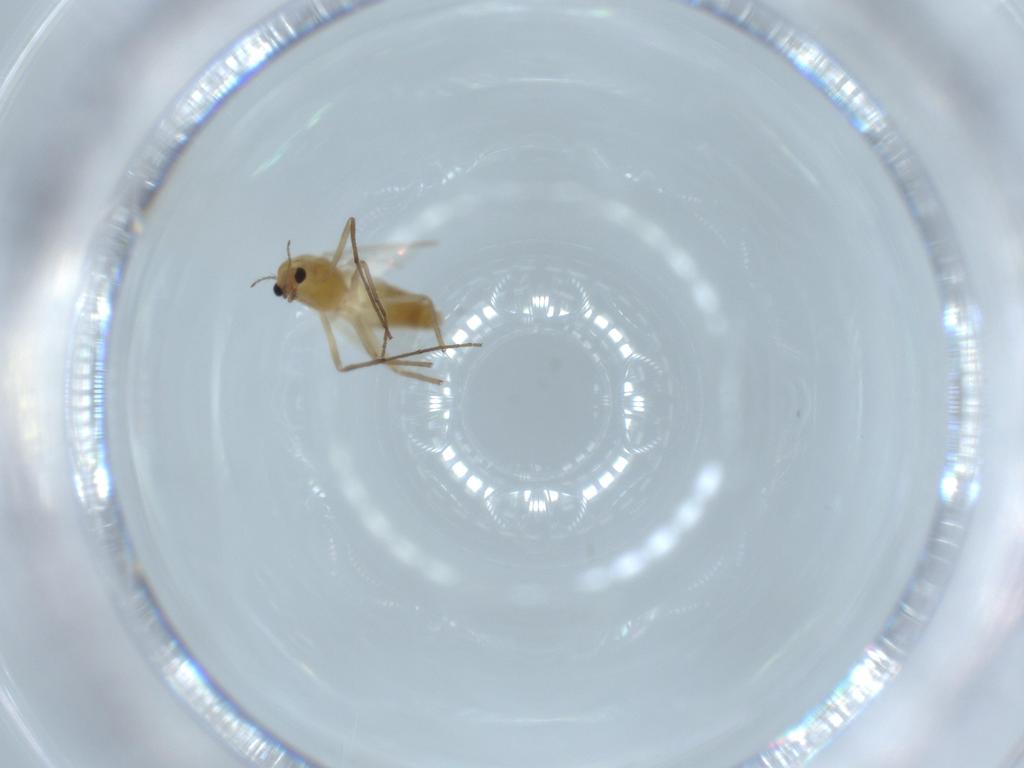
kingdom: Animalia
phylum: Arthropoda
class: Insecta
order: Diptera
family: Chironomidae
